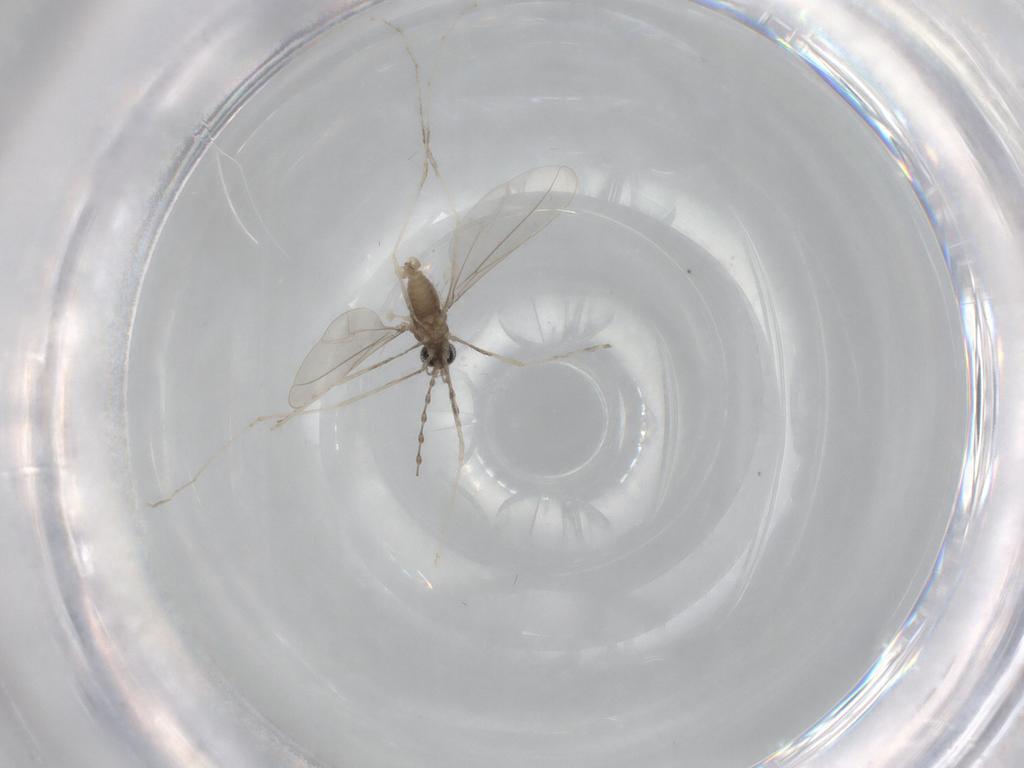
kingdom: Animalia
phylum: Arthropoda
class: Insecta
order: Diptera
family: Cecidomyiidae
